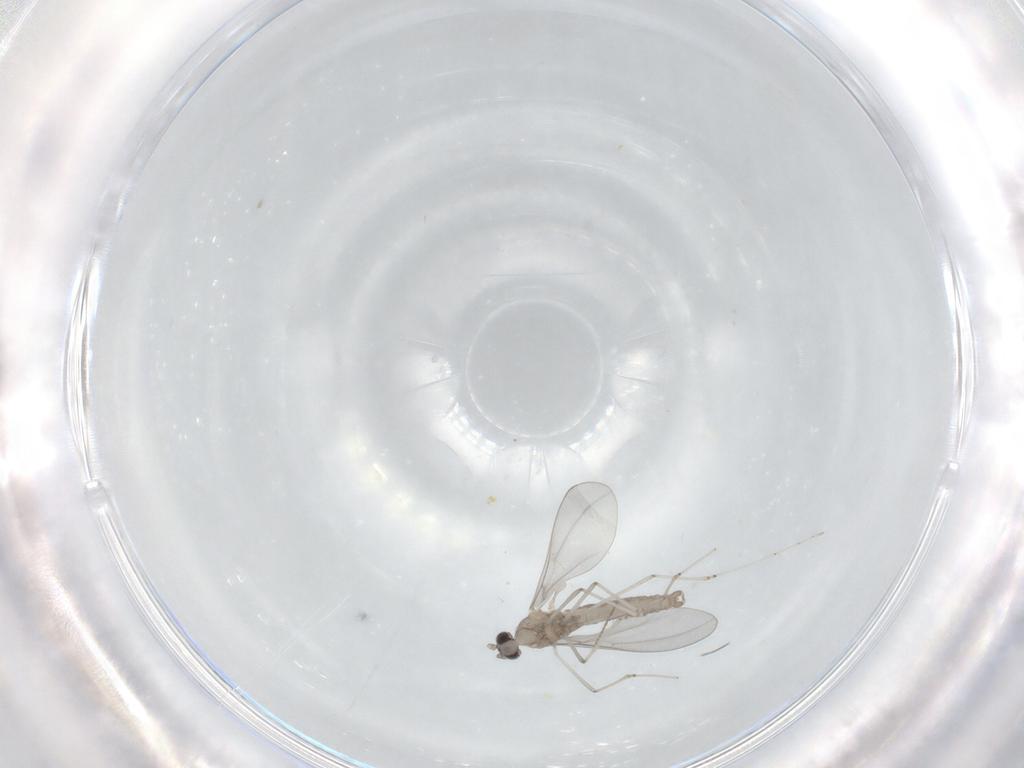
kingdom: Animalia
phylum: Arthropoda
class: Insecta
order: Diptera
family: Phoridae
